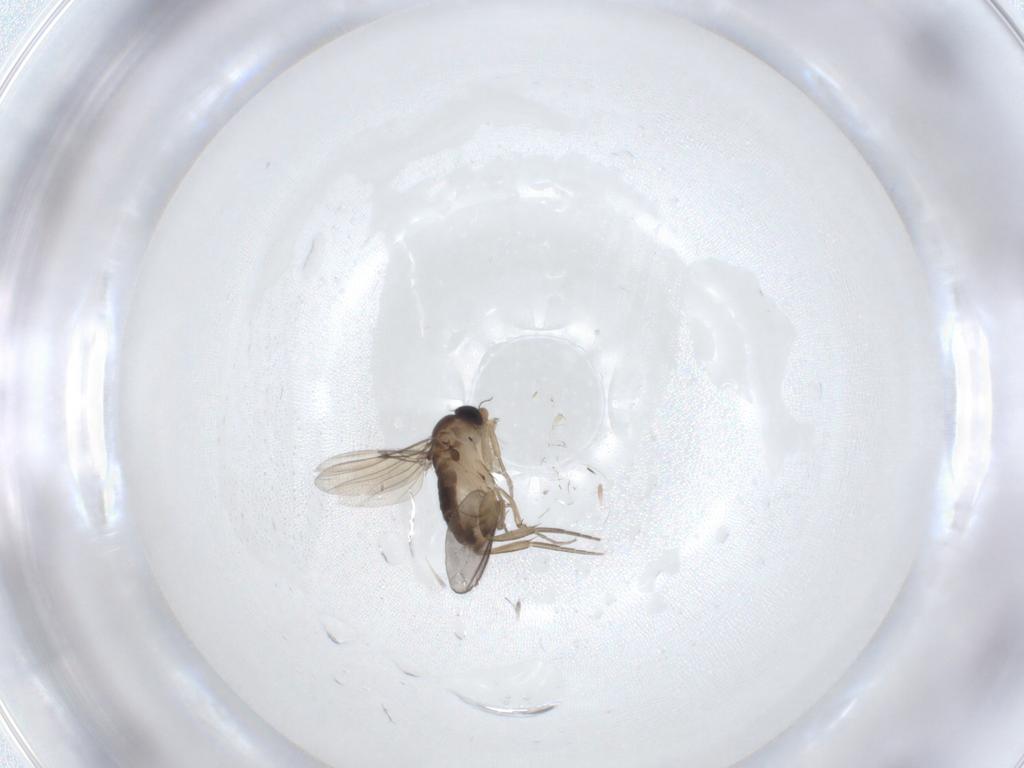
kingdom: Animalia
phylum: Arthropoda
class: Insecta
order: Diptera
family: Phoridae
